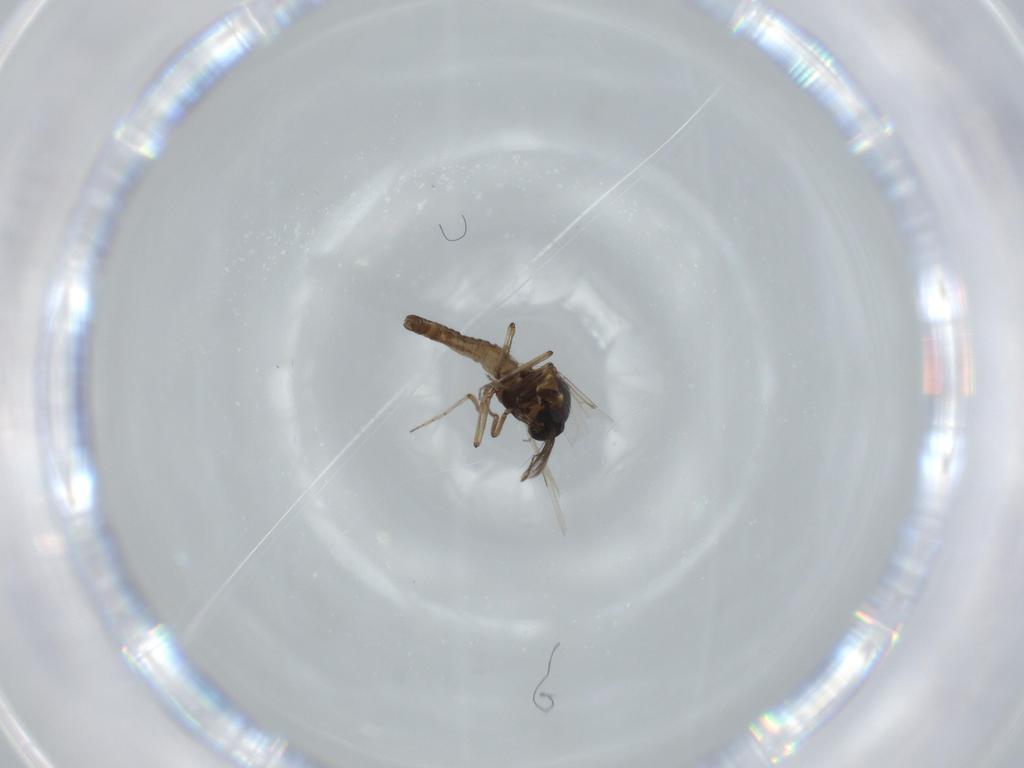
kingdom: Animalia
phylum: Arthropoda
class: Insecta
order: Diptera
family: Ceratopogonidae
